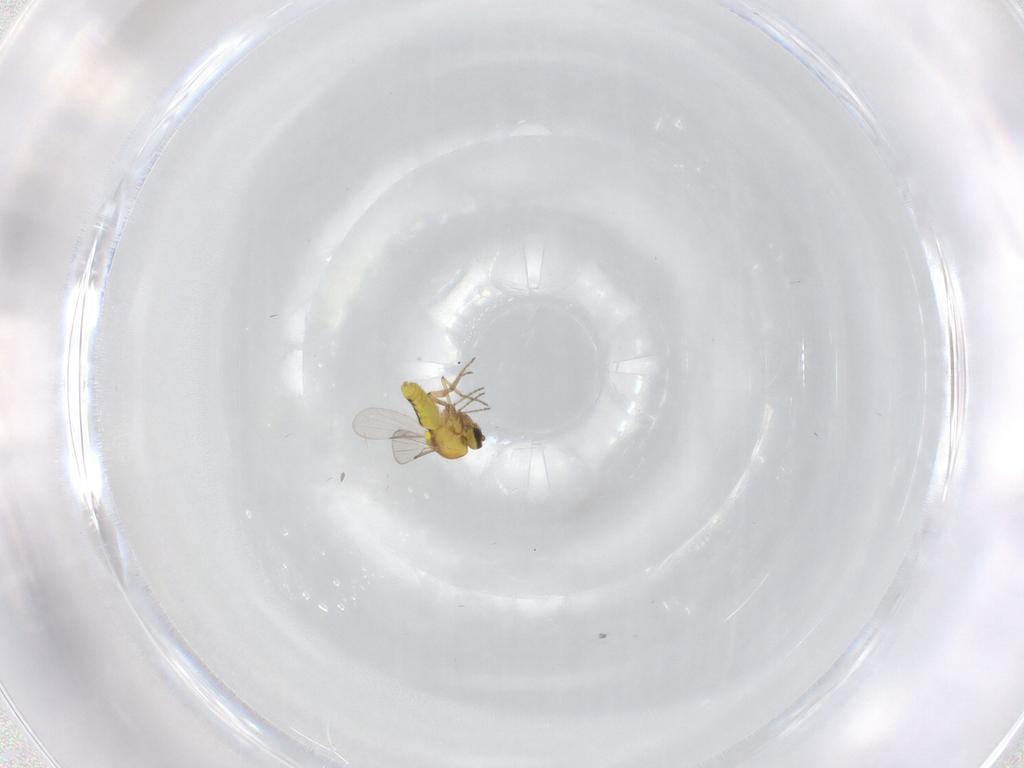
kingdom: Animalia
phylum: Arthropoda
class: Insecta
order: Diptera
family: Ceratopogonidae
